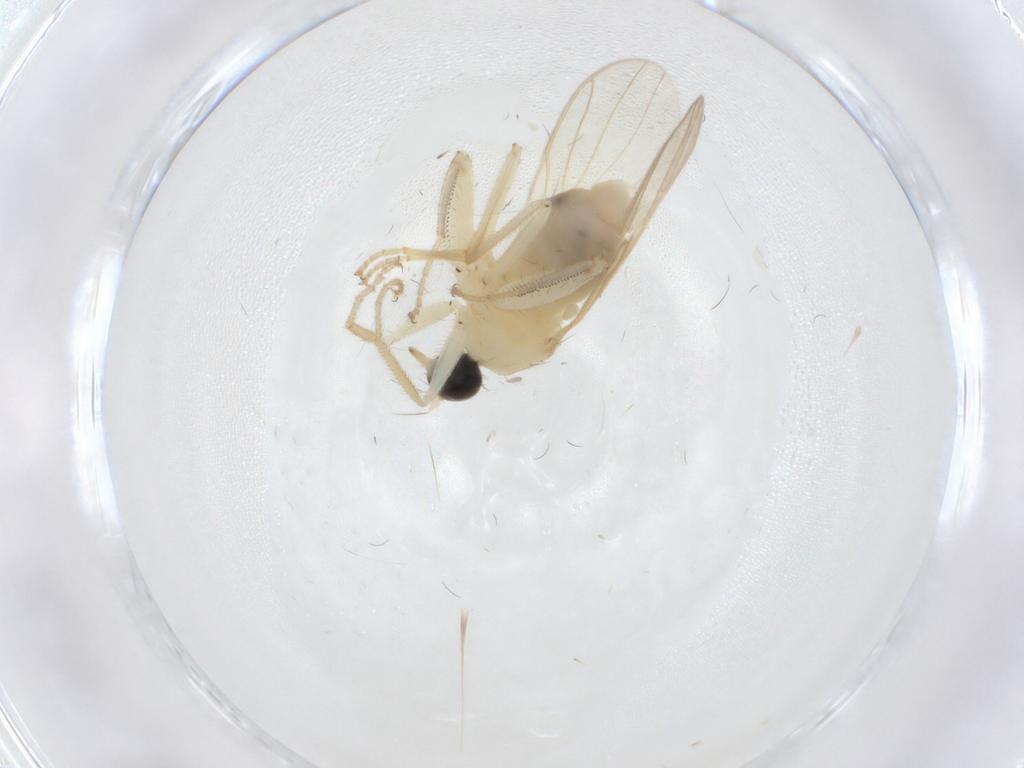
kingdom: Animalia
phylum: Arthropoda
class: Insecta
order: Diptera
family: Hybotidae
